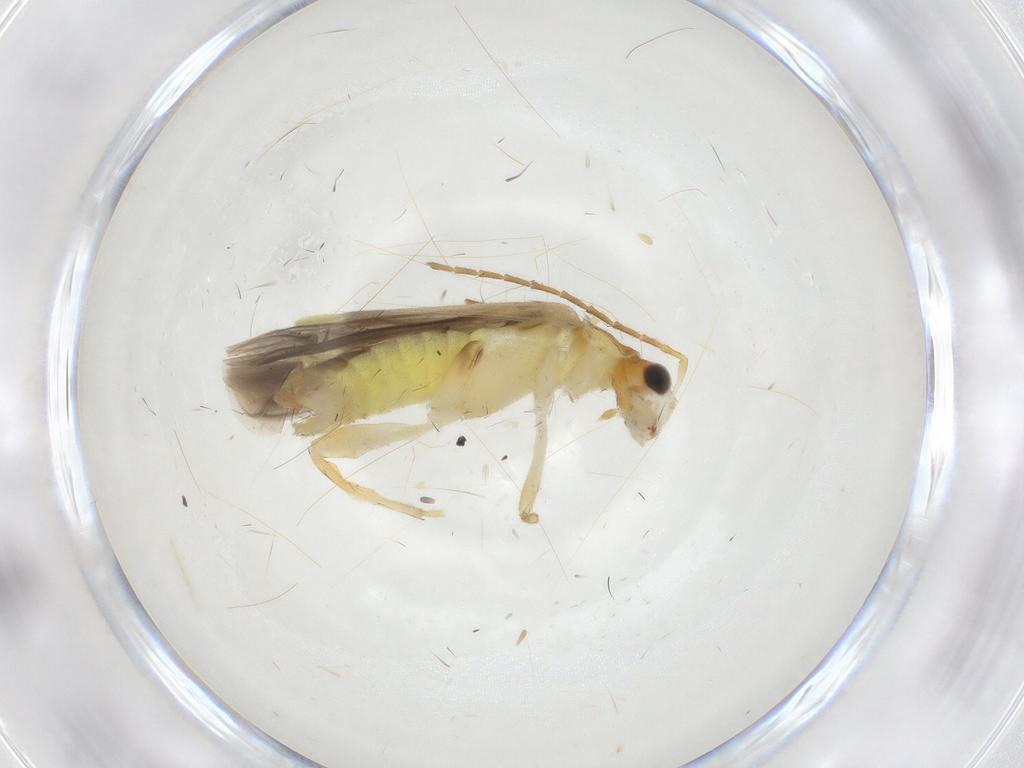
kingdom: Animalia
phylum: Arthropoda
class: Insecta
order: Coleoptera
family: Cantharidae
